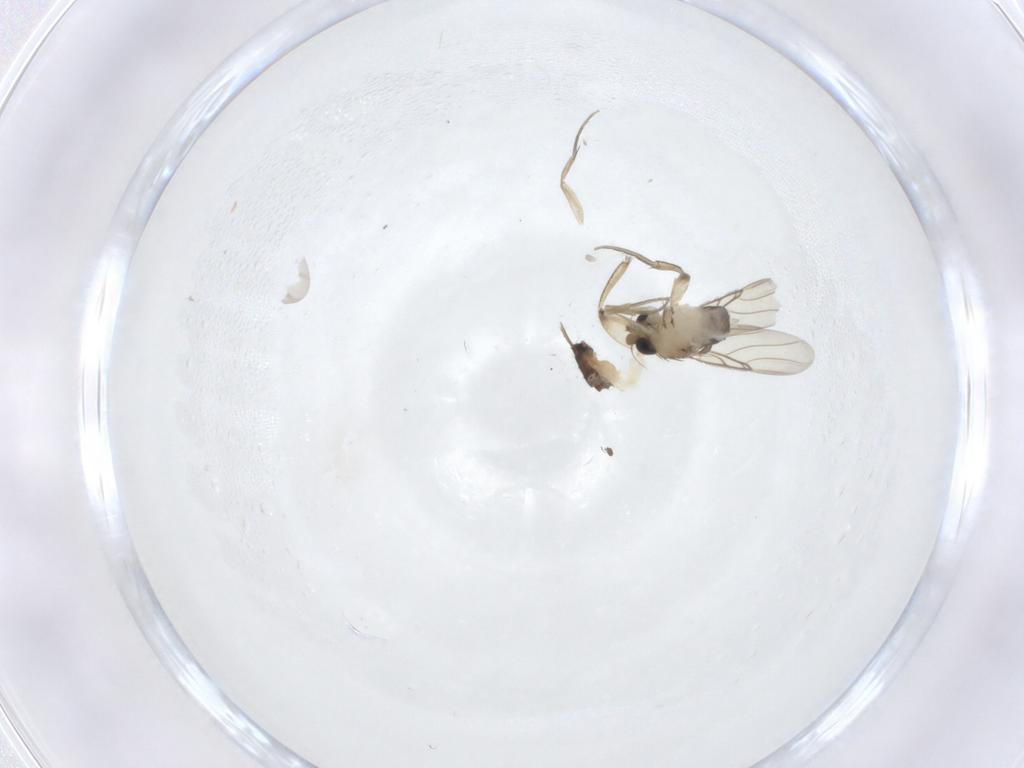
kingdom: Animalia
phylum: Arthropoda
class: Insecta
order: Diptera
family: Phoridae
